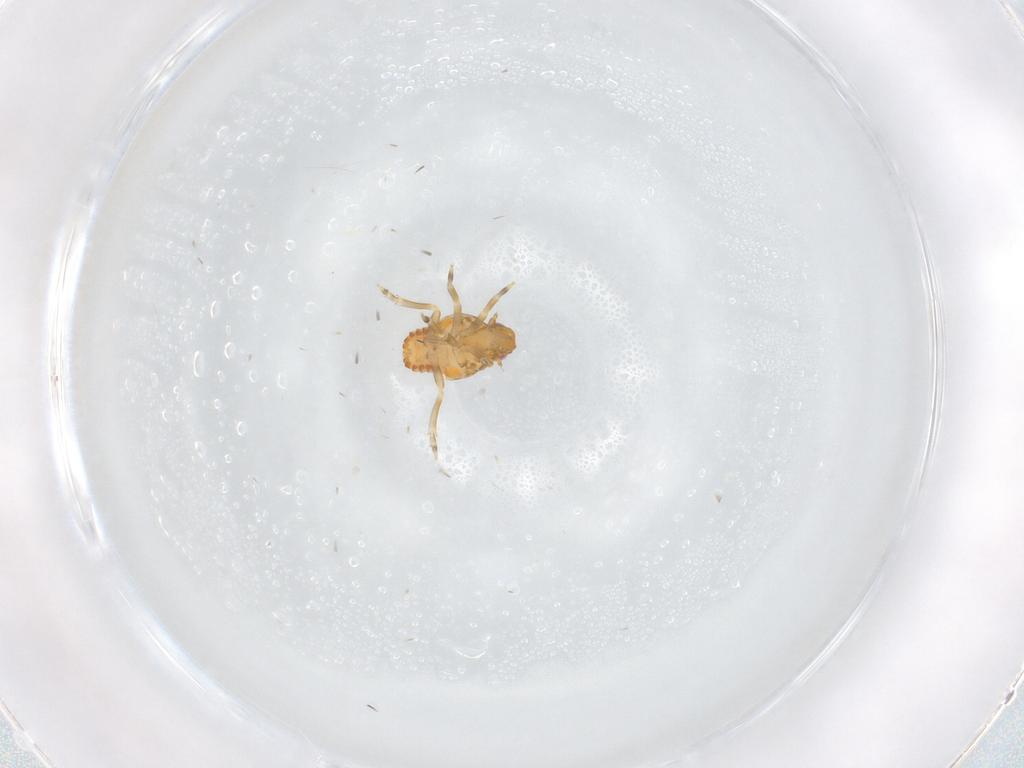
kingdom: Animalia
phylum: Arthropoda
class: Insecta
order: Hemiptera
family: Flatidae
